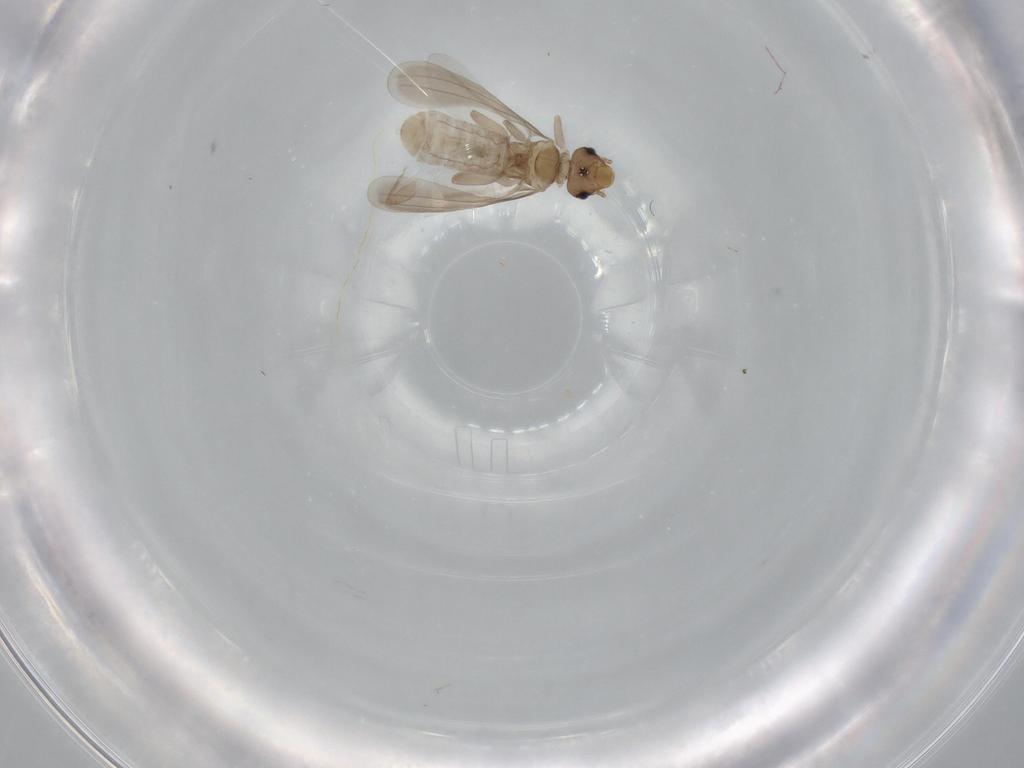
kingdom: Animalia
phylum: Arthropoda
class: Insecta
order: Psocodea
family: Liposcelididae
